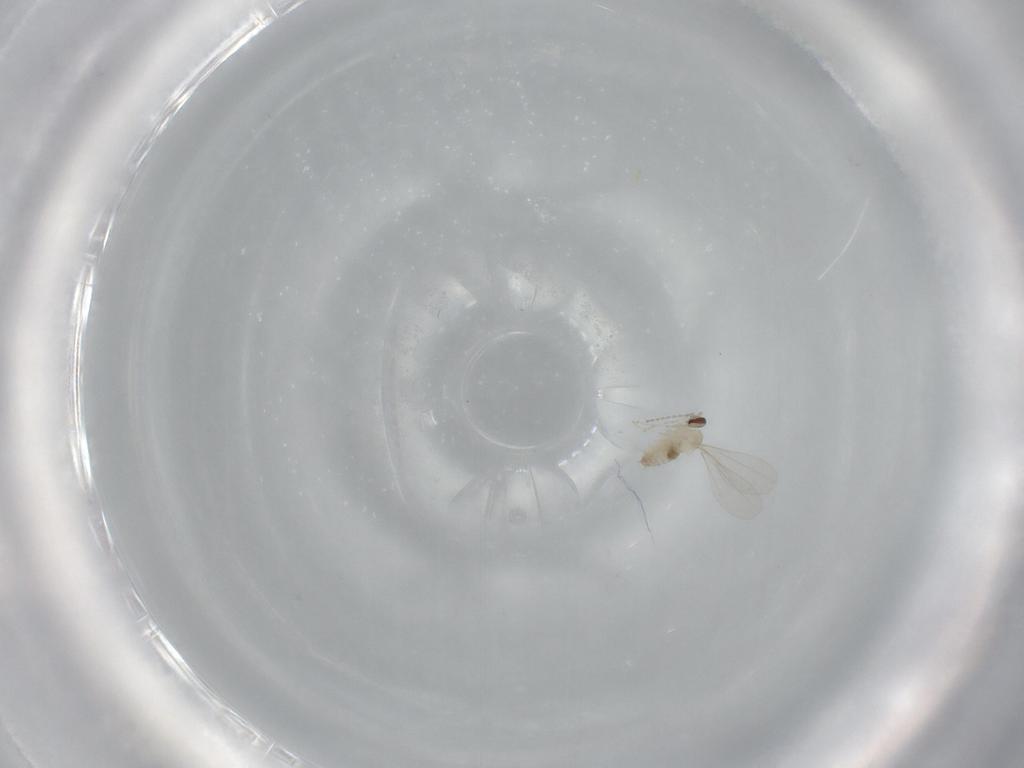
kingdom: Animalia
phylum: Arthropoda
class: Insecta
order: Diptera
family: Cecidomyiidae
